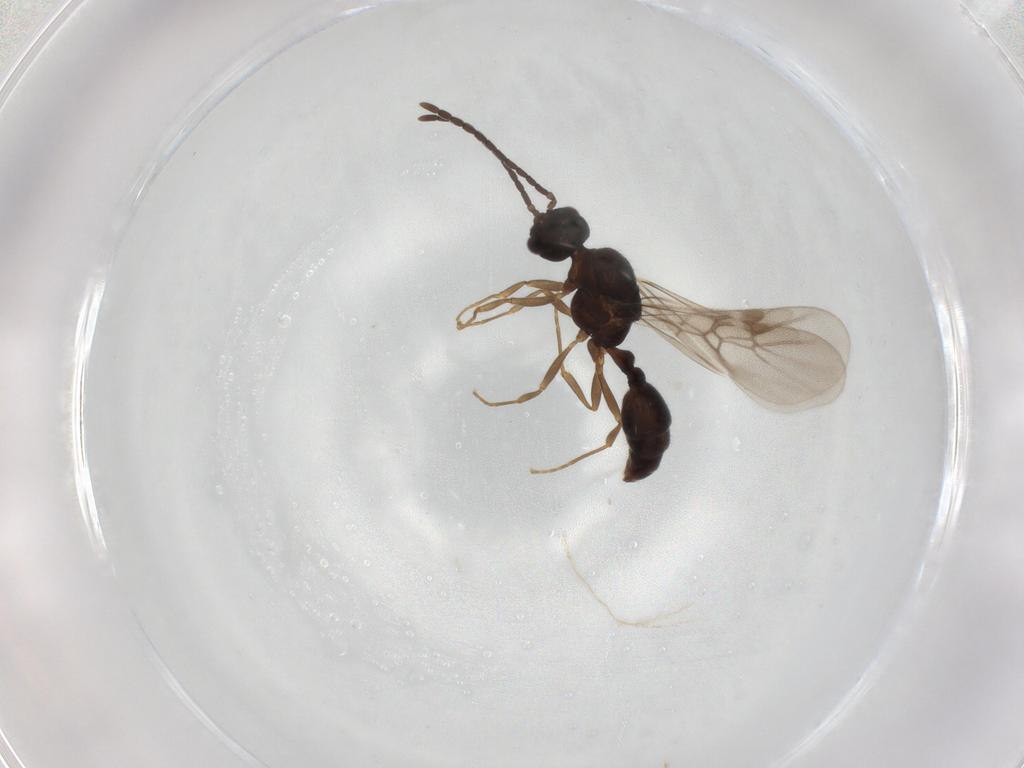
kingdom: Animalia
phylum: Arthropoda
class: Insecta
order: Hymenoptera
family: Formicidae
